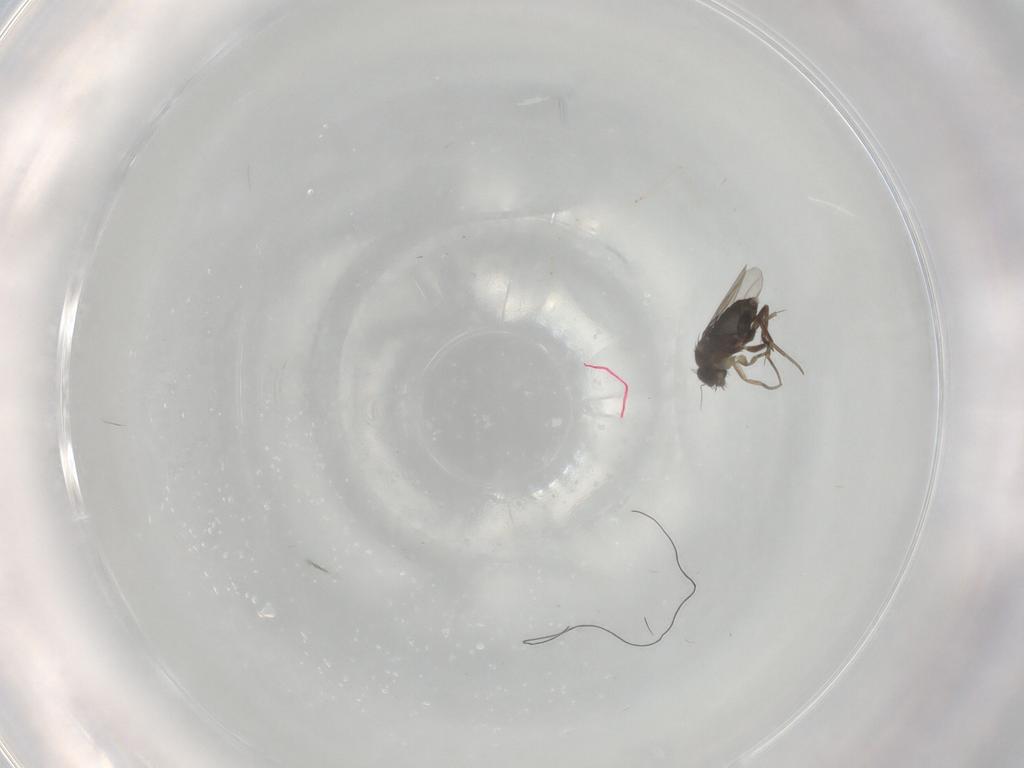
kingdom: Animalia
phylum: Arthropoda
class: Insecta
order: Diptera
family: Phoridae
